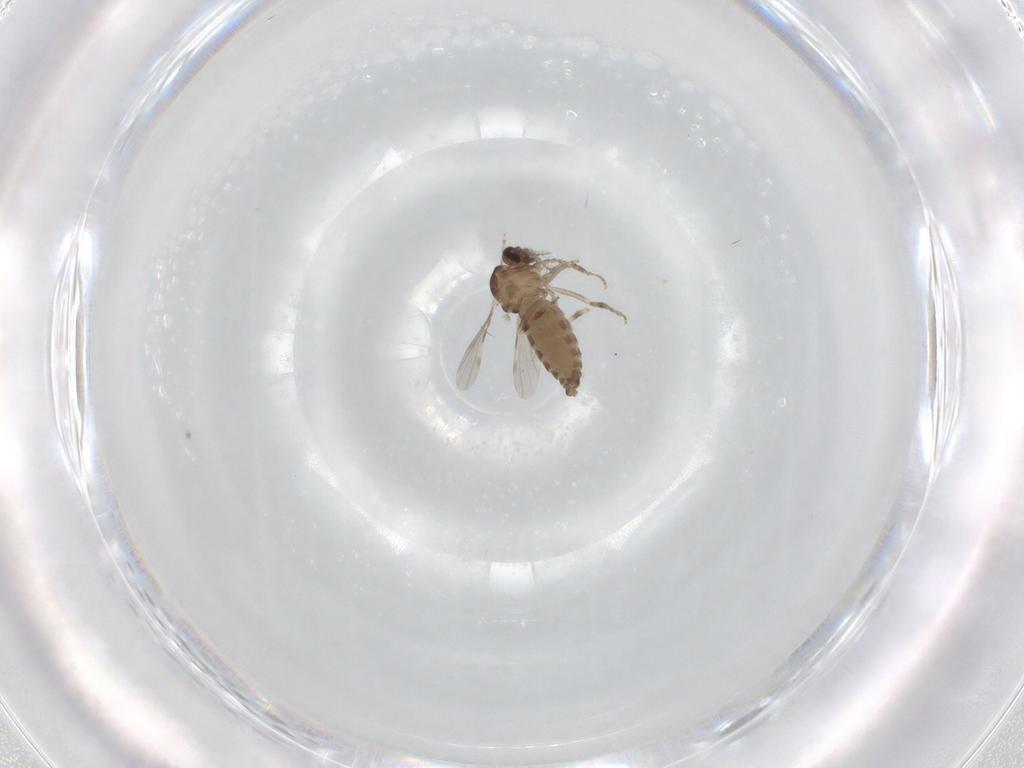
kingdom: Animalia
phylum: Arthropoda
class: Insecta
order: Diptera
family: Ceratopogonidae
